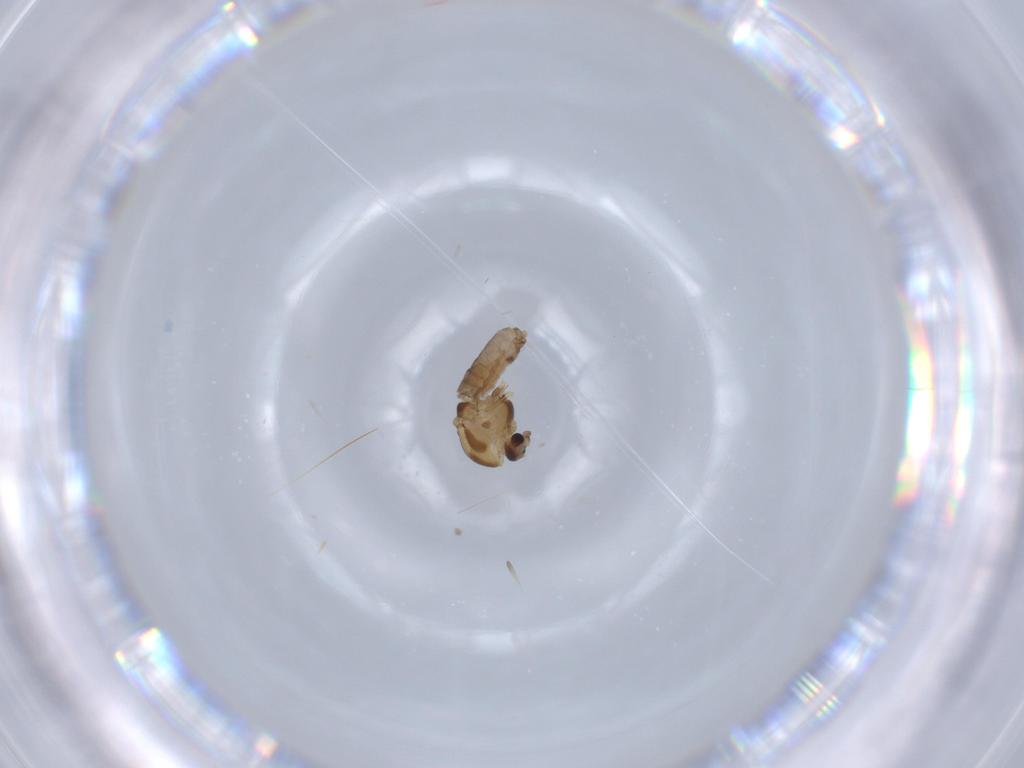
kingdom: Animalia
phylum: Arthropoda
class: Insecta
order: Diptera
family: Chironomidae
